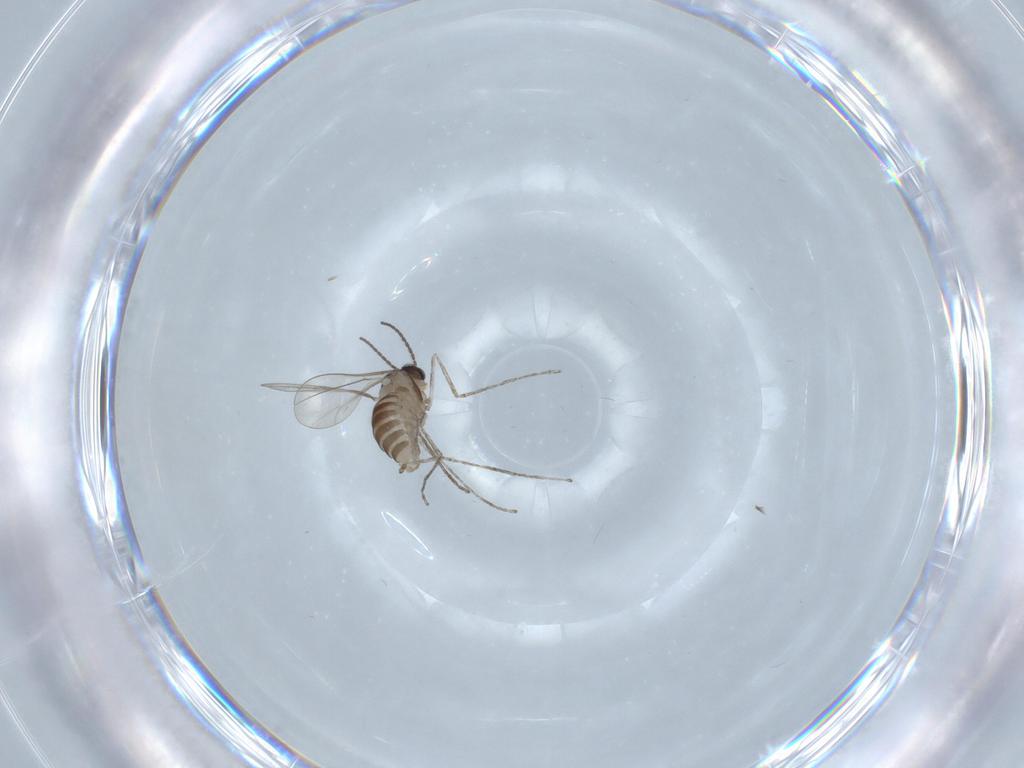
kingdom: Animalia
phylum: Arthropoda
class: Insecta
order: Diptera
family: Cecidomyiidae
